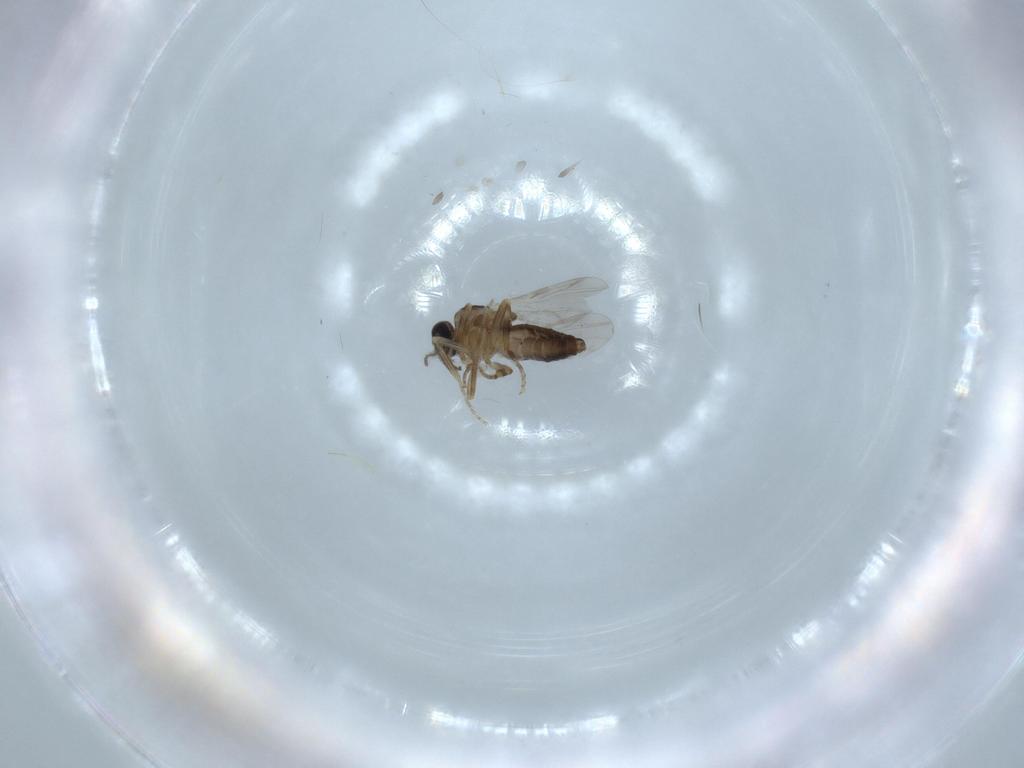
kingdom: Animalia
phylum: Arthropoda
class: Insecta
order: Diptera
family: Ceratopogonidae
